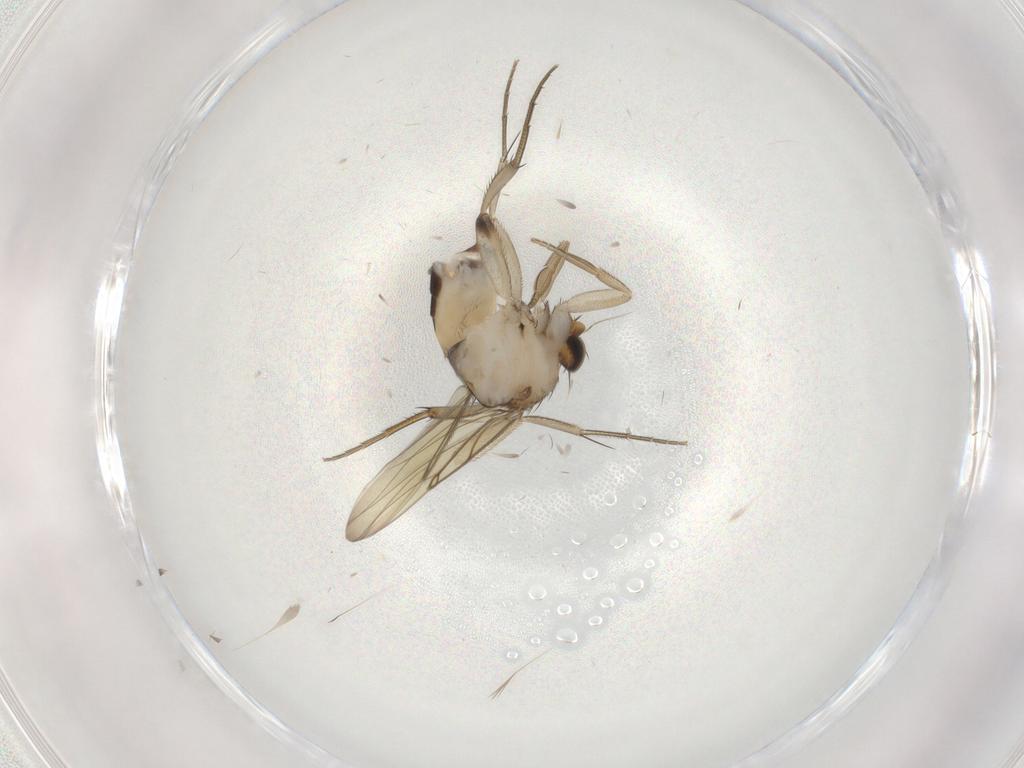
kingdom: Animalia
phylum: Arthropoda
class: Insecta
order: Diptera
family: Phoridae
